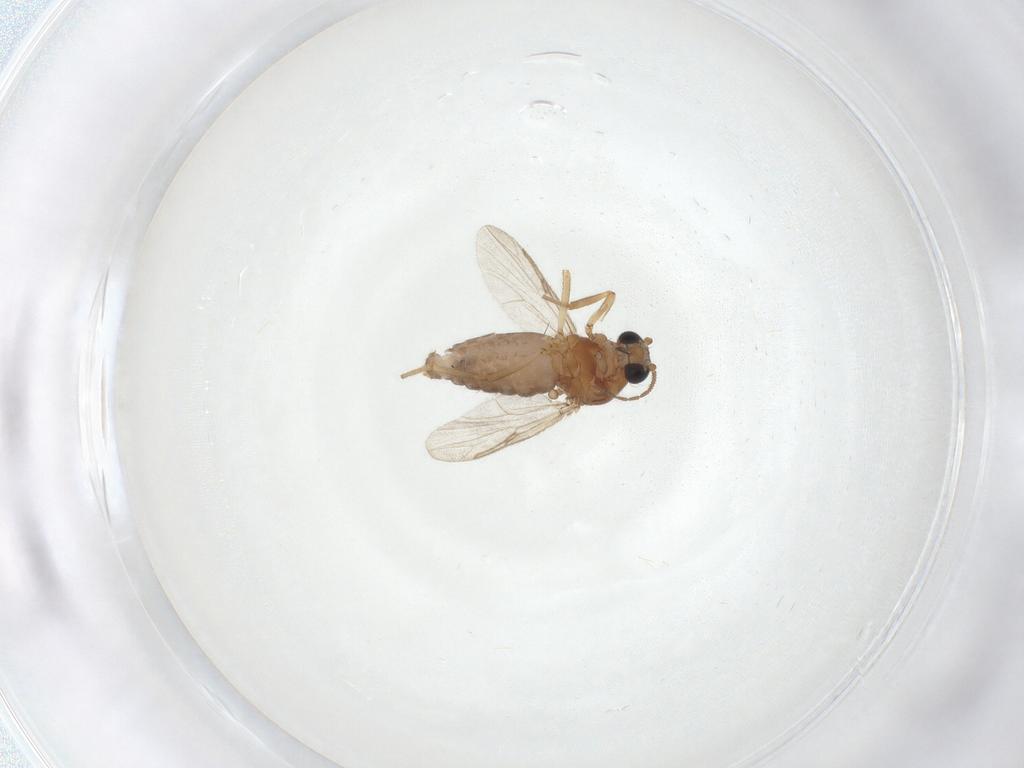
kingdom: Animalia
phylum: Arthropoda
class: Insecta
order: Diptera
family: Ceratopogonidae
